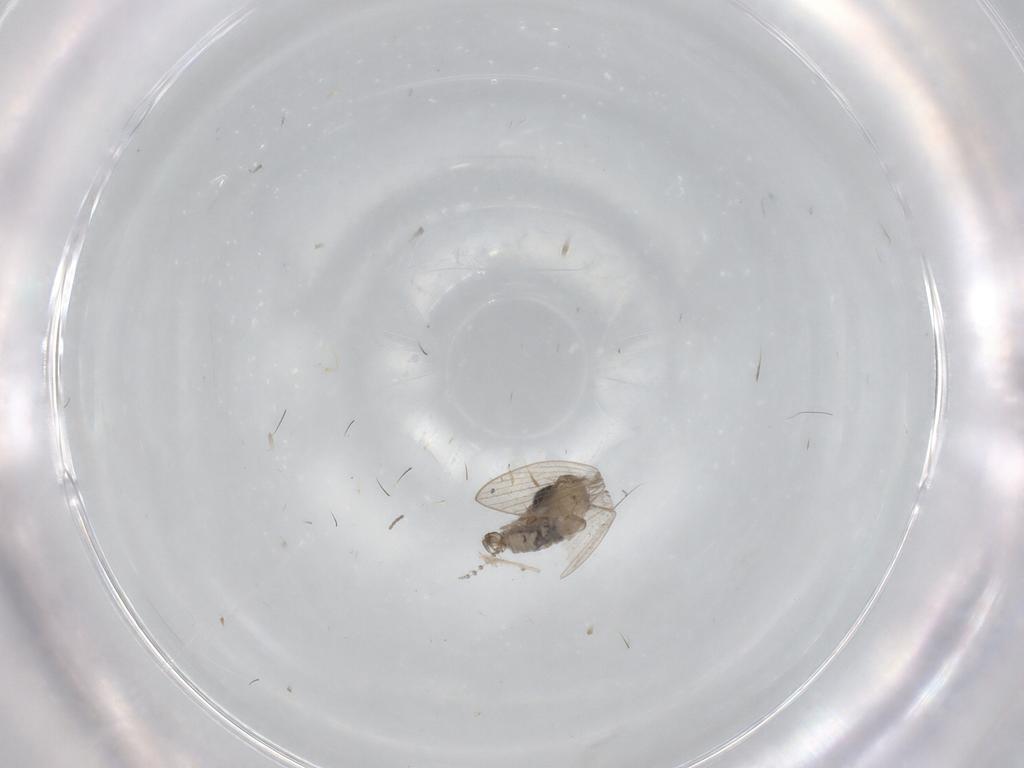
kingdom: Animalia
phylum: Arthropoda
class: Insecta
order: Diptera
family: Psychodidae
